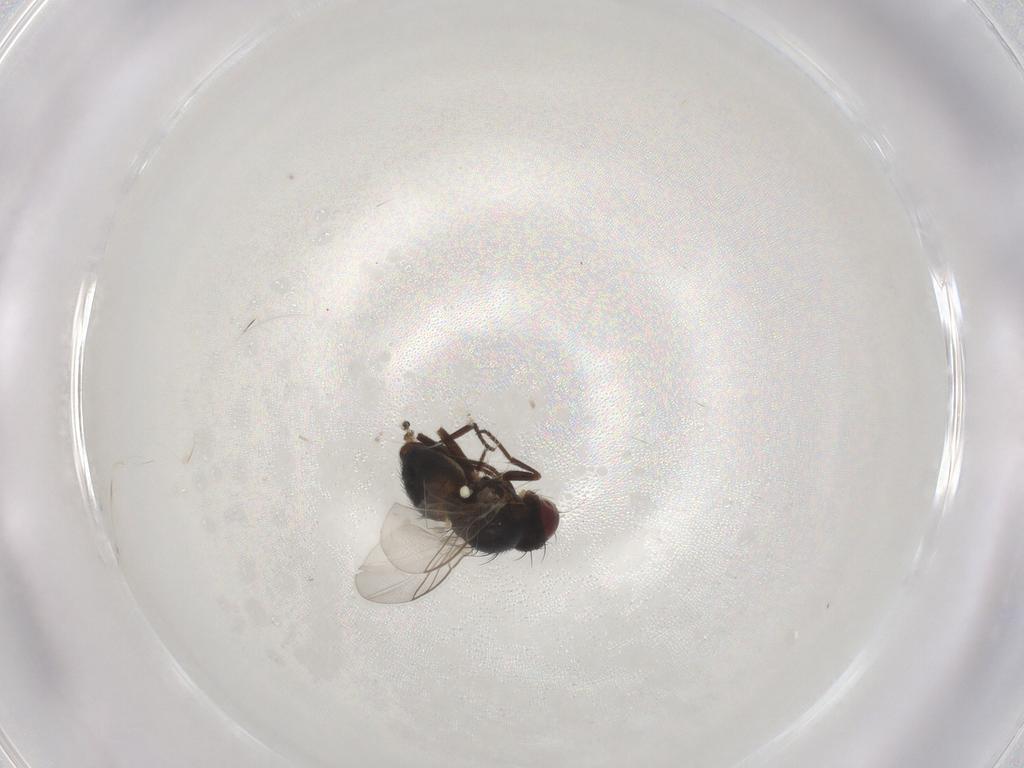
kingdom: Animalia
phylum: Arthropoda
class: Insecta
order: Diptera
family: Agromyzidae
